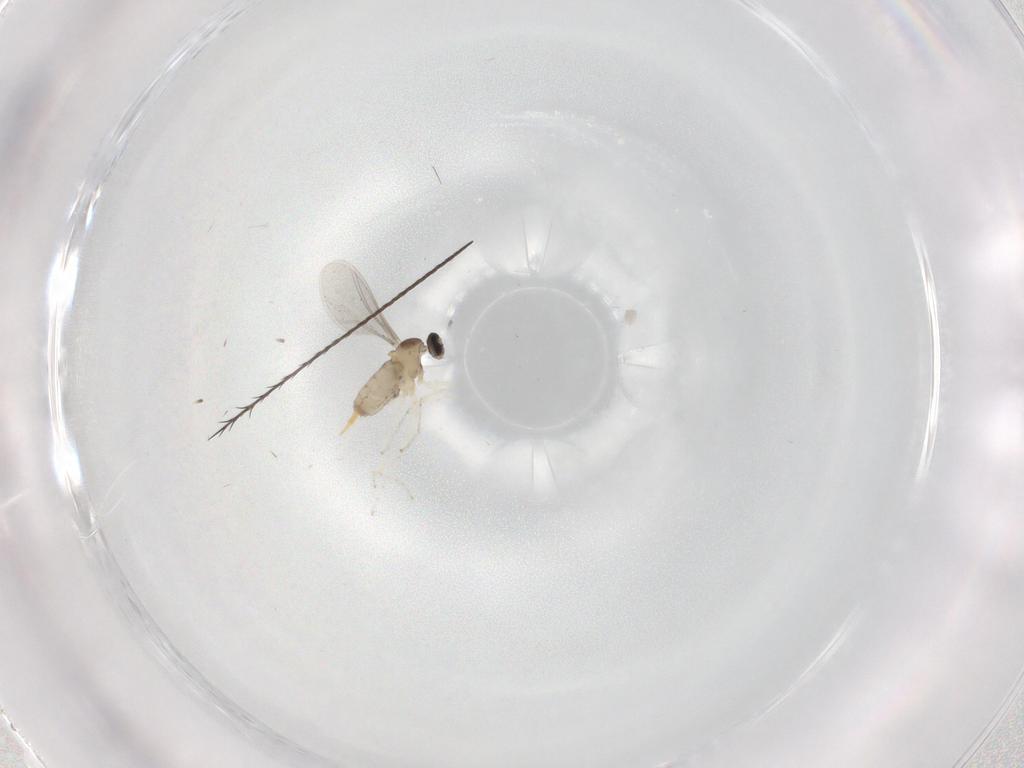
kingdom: Animalia
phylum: Arthropoda
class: Insecta
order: Diptera
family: Cecidomyiidae
